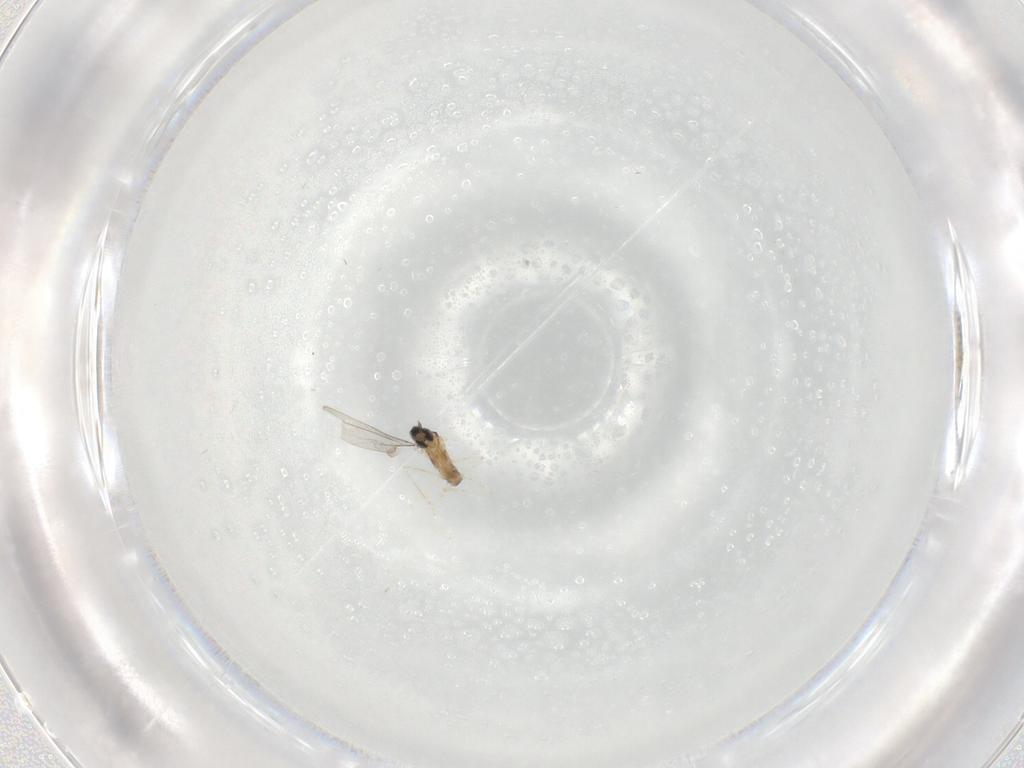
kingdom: Animalia
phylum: Arthropoda
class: Insecta
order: Diptera
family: Cecidomyiidae
